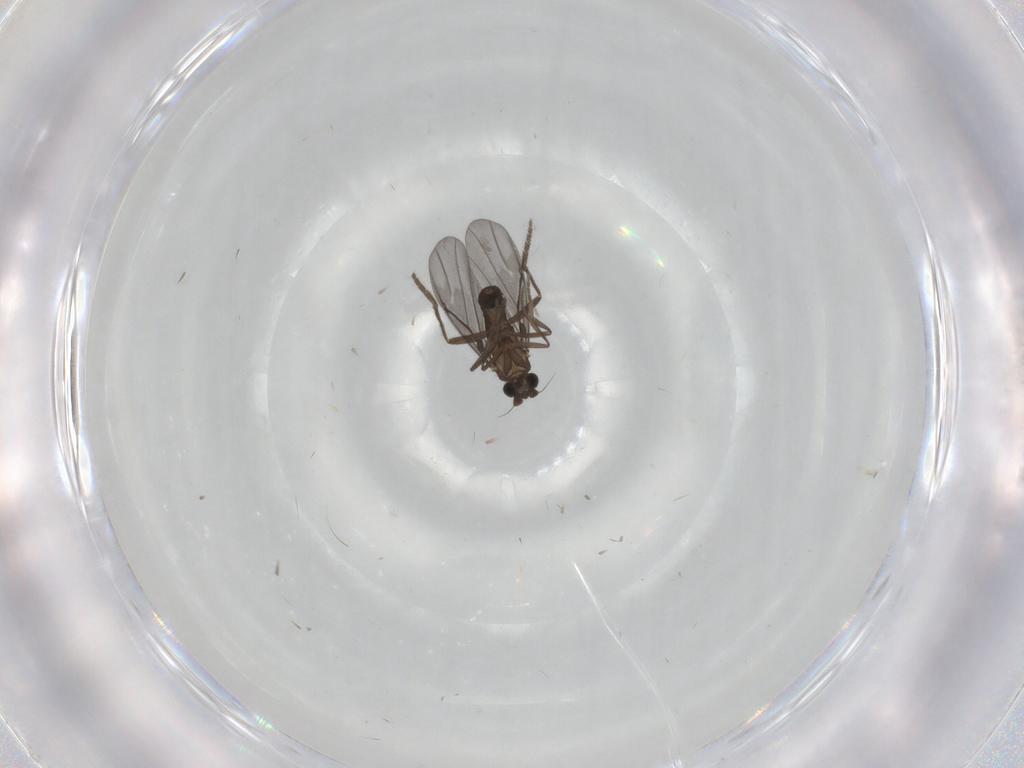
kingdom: Animalia
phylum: Arthropoda
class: Insecta
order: Diptera
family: Phoridae
